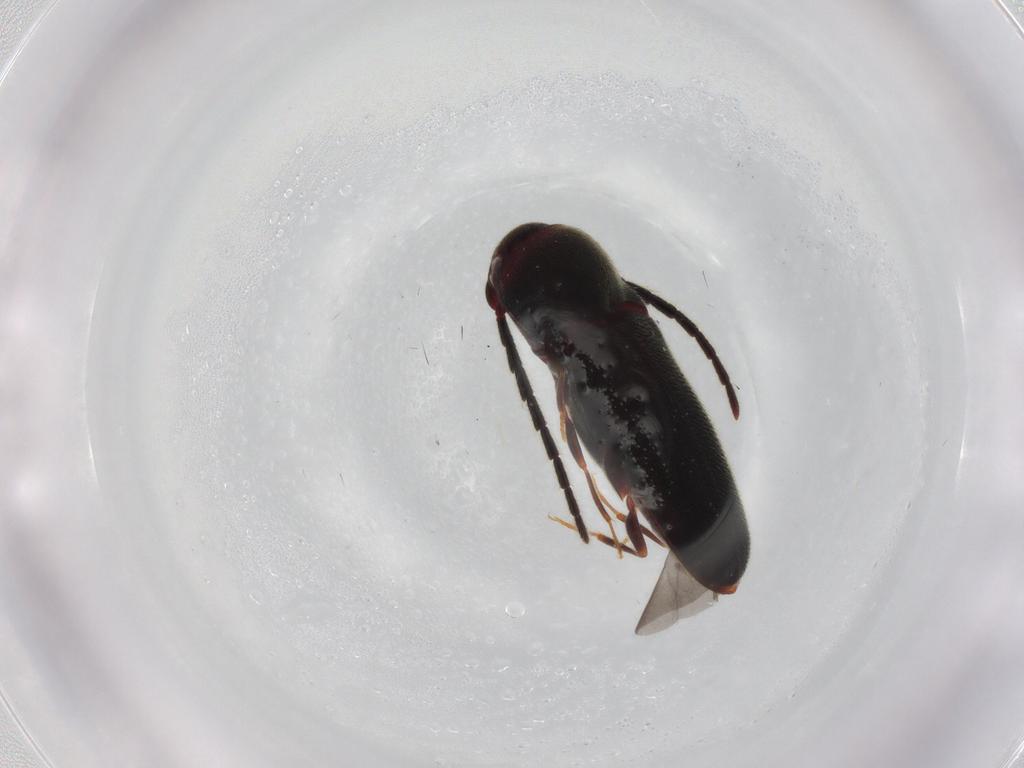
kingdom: Animalia
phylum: Arthropoda
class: Insecta
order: Coleoptera
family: Eucnemidae
